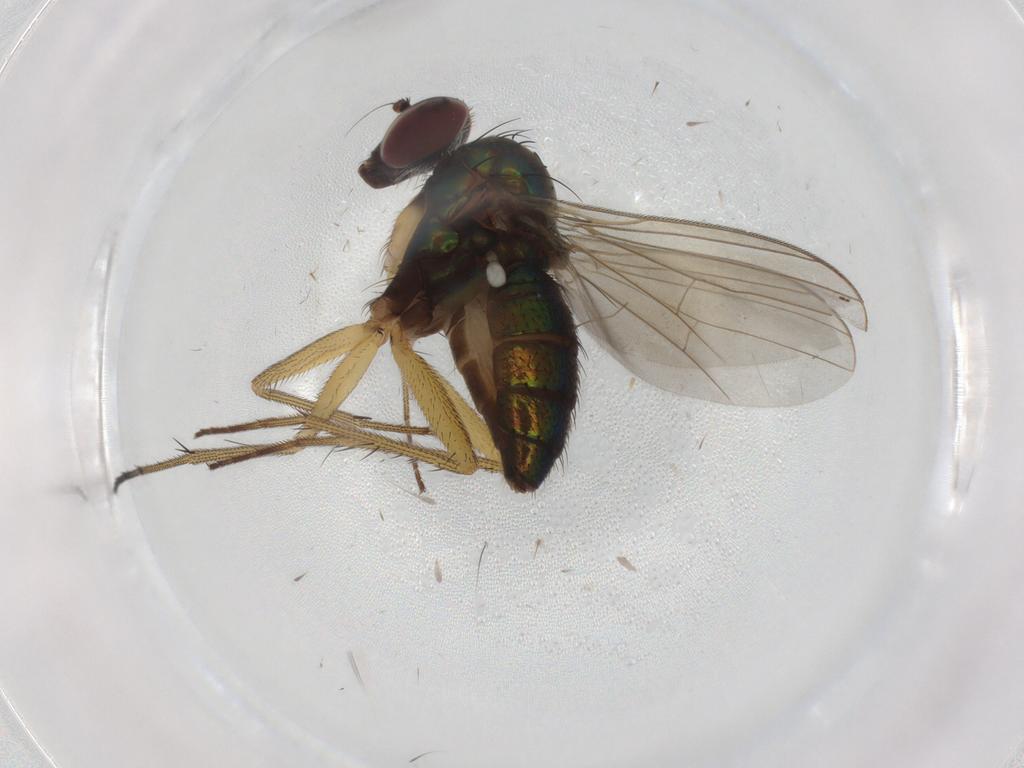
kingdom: Animalia
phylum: Arthropoda
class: Insecta
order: Diptera
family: Dolichopodidae
